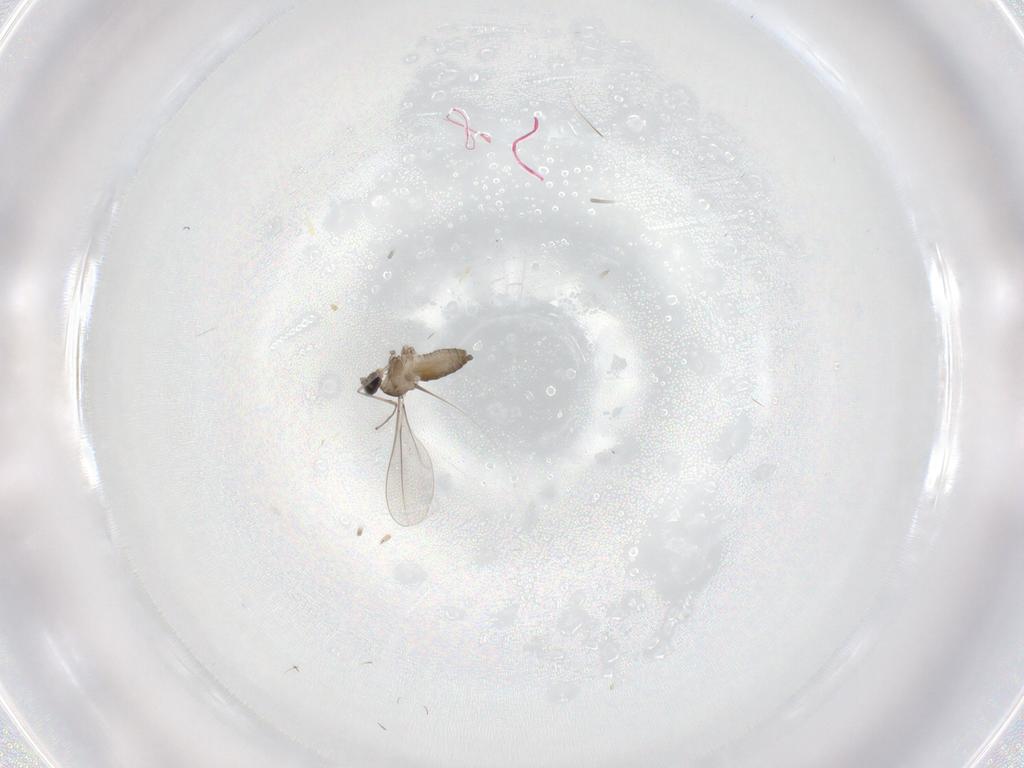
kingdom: Animalia
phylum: Arthropoda
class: Insecta
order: Diptera
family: Cecidomyiidae
